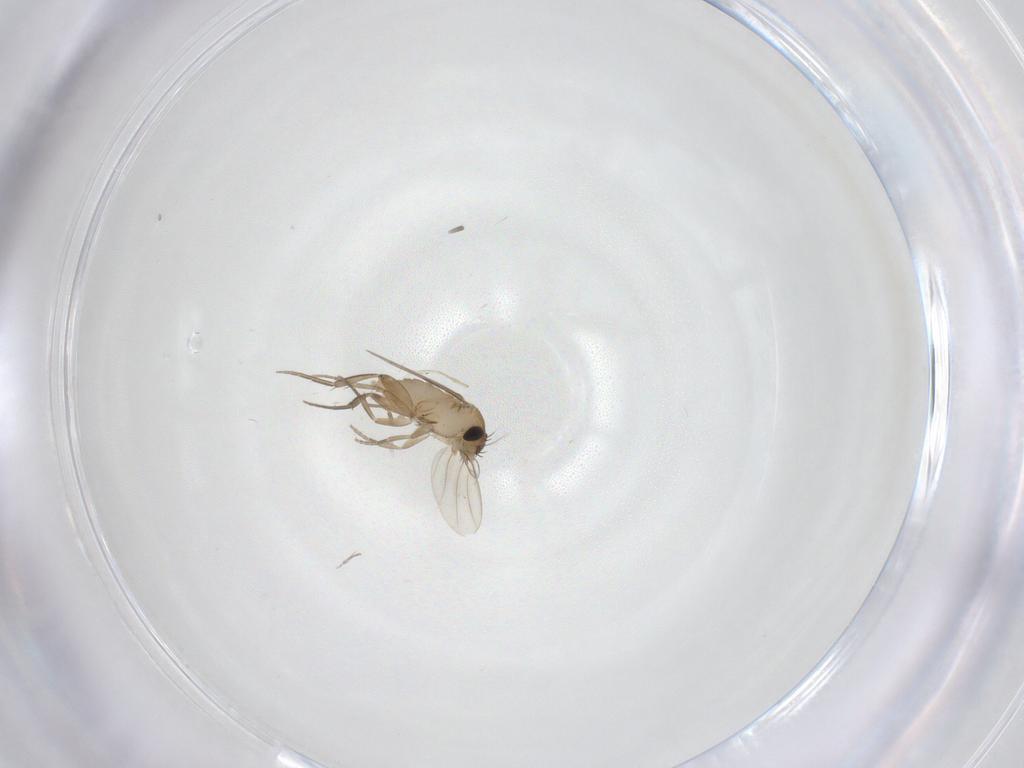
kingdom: Animalia
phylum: Arthropoda
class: Insecta
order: Diptera
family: Phoridae
